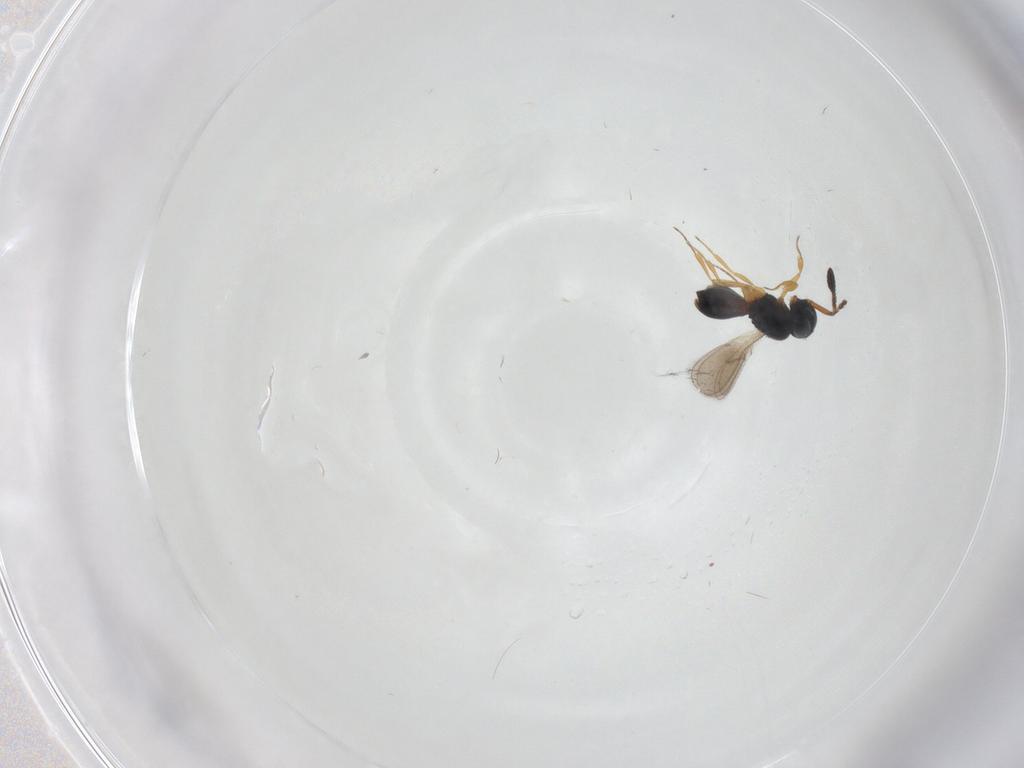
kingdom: Animalia
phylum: Arthropoda
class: Insecta
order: Hymenoptera
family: Scelionidae
